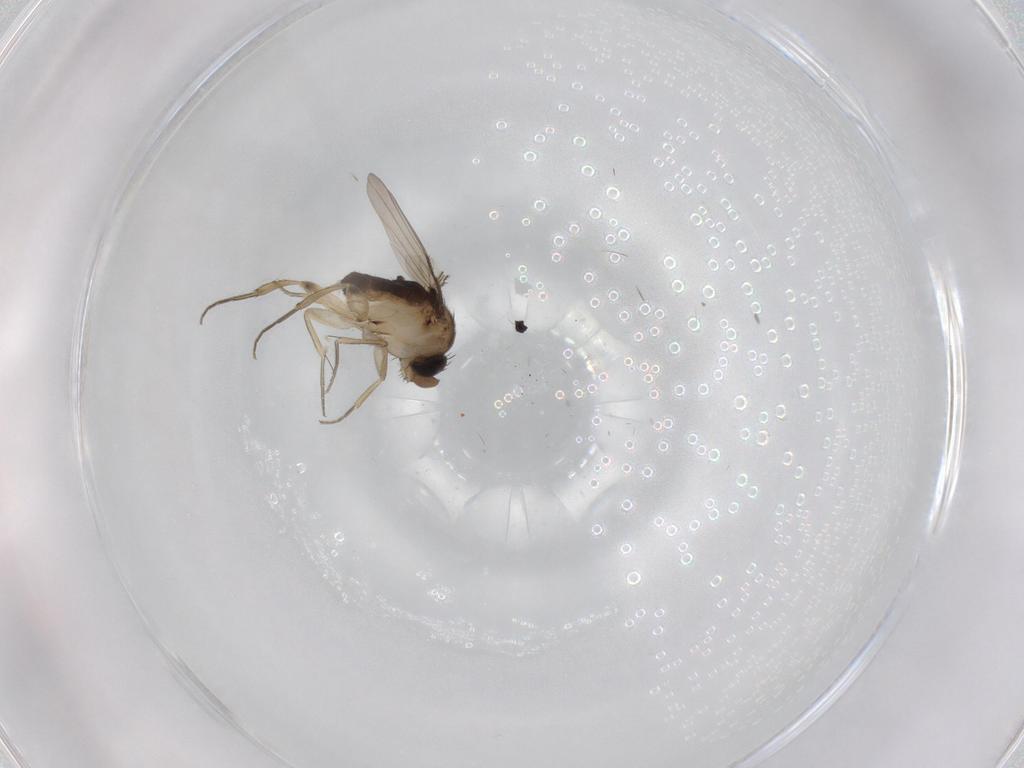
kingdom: Animalia
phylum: Arthropoda
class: Insecta
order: Diptera
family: Phoridae
